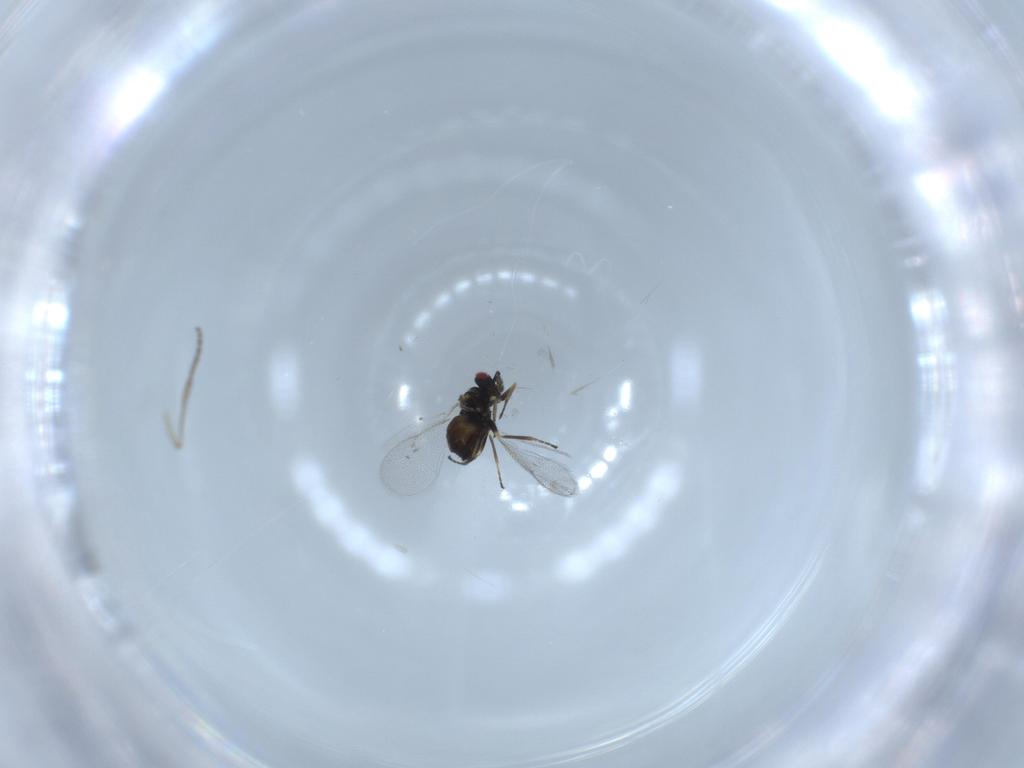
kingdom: Animalia
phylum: Arthropoda
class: Insecta
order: Hymenoptera
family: Eulophidae
